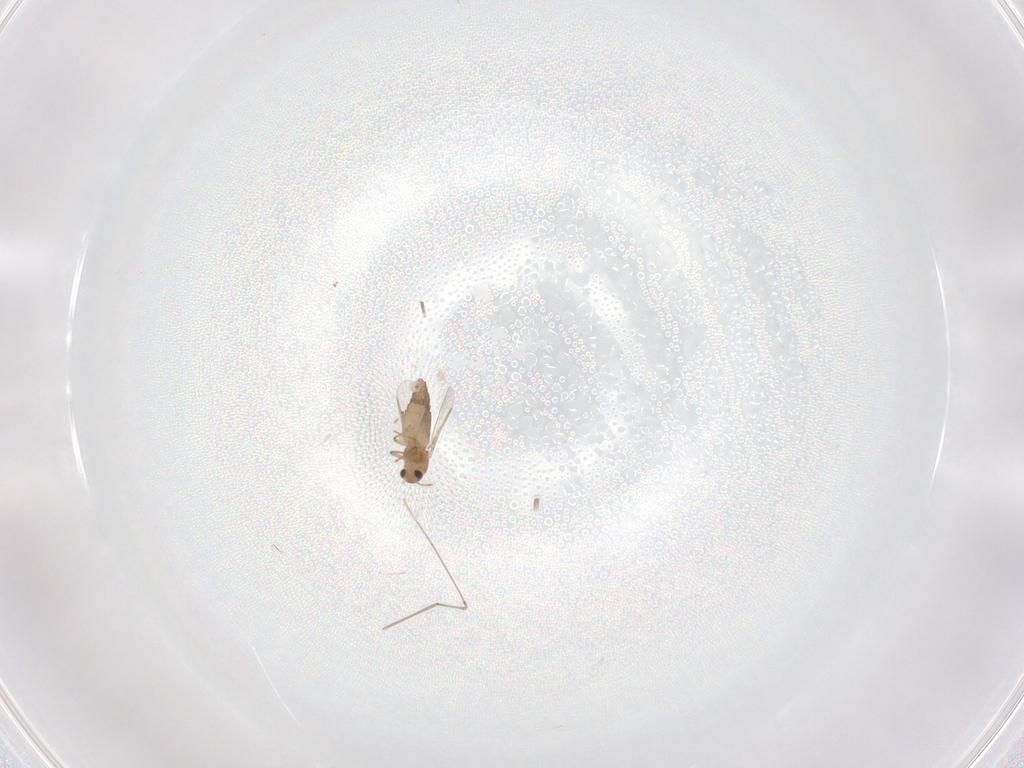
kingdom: Animalia
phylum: Arthropoda
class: Insecta
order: Diptera
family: Chironomidae
